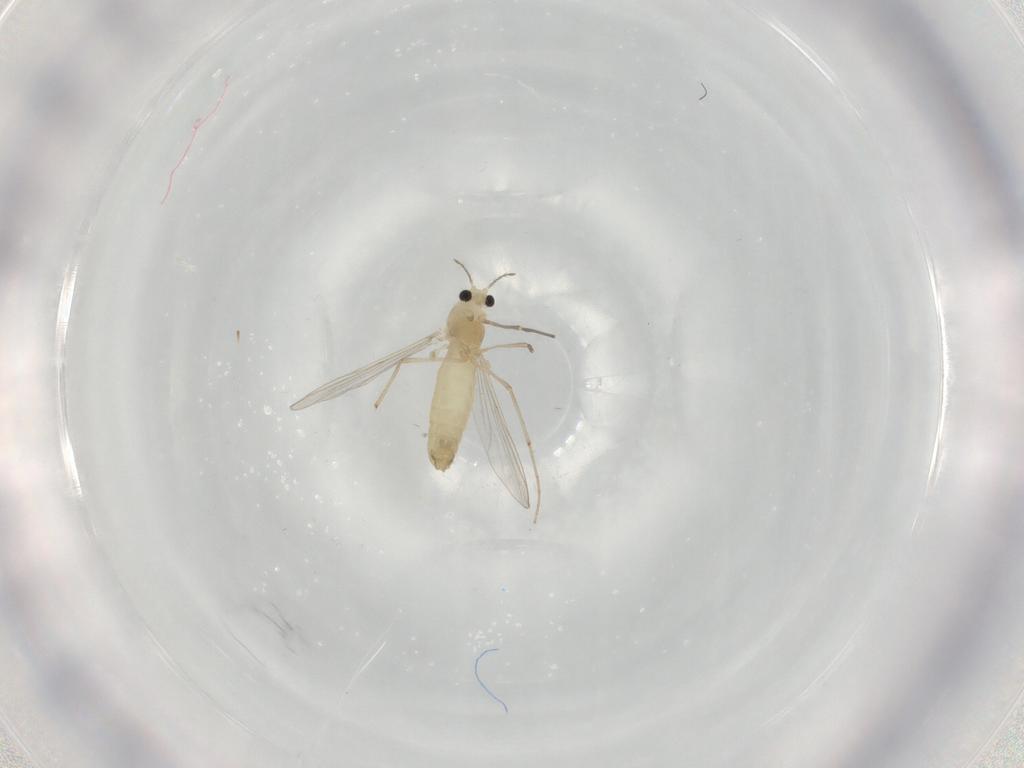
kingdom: Animalia
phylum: Arthropoda
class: Insecta
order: Diptera
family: Chironomidae
